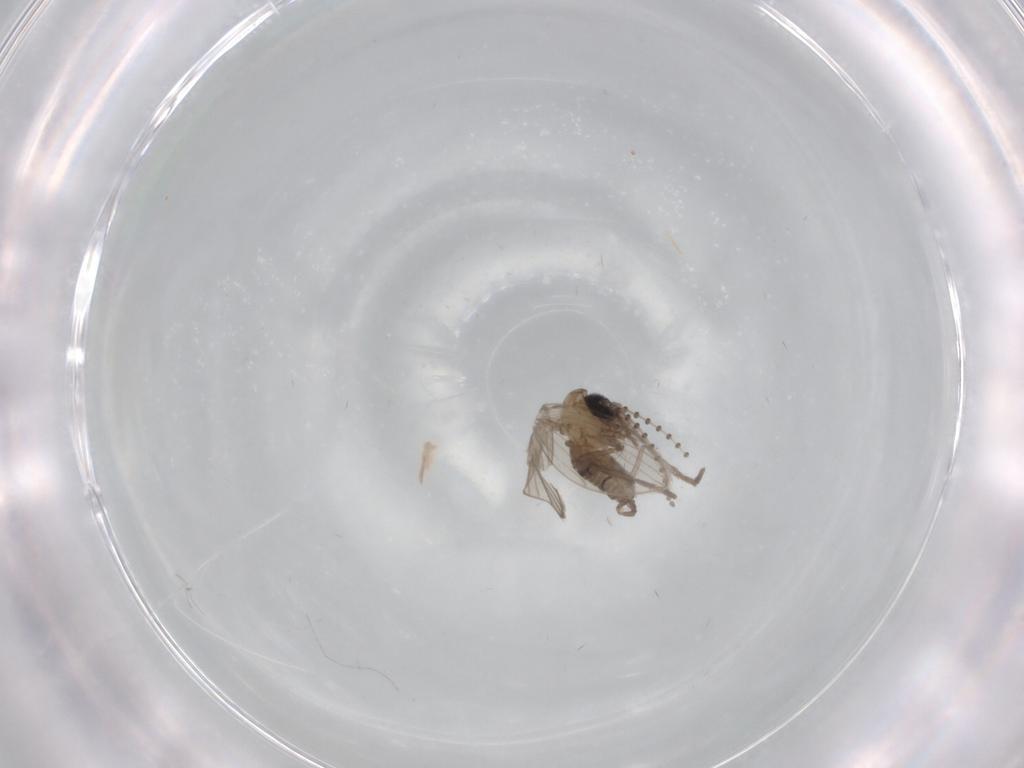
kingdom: Animalia
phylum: Arthropoda
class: Insecta
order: Diptera
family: Psychodidae
